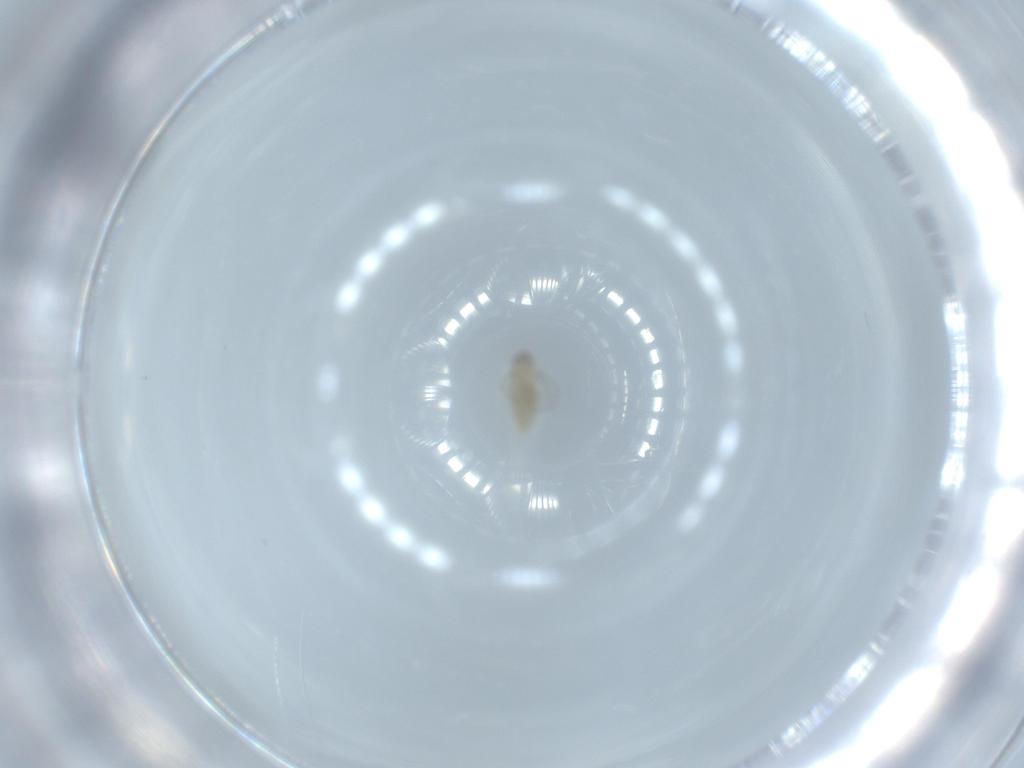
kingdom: Animalia
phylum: Arthropoda
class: Insecta
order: Diptera
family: Cecidomyiidae
